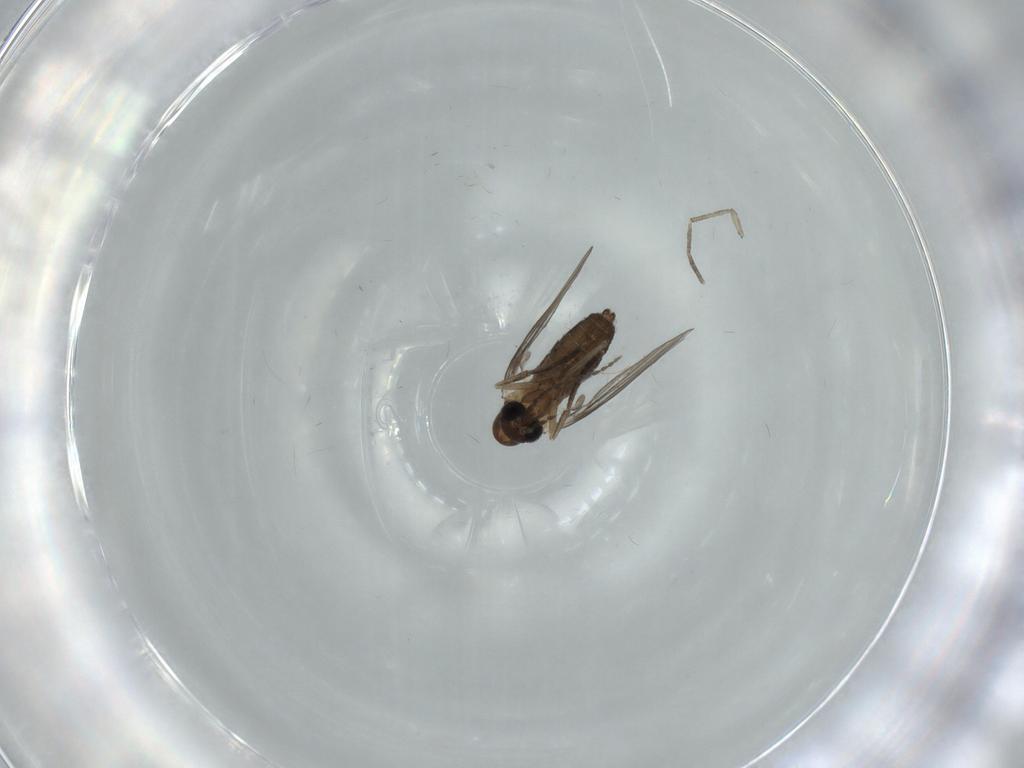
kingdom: Animalia
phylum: Arthropoda
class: Insecta
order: Diptera
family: Psychodidae
